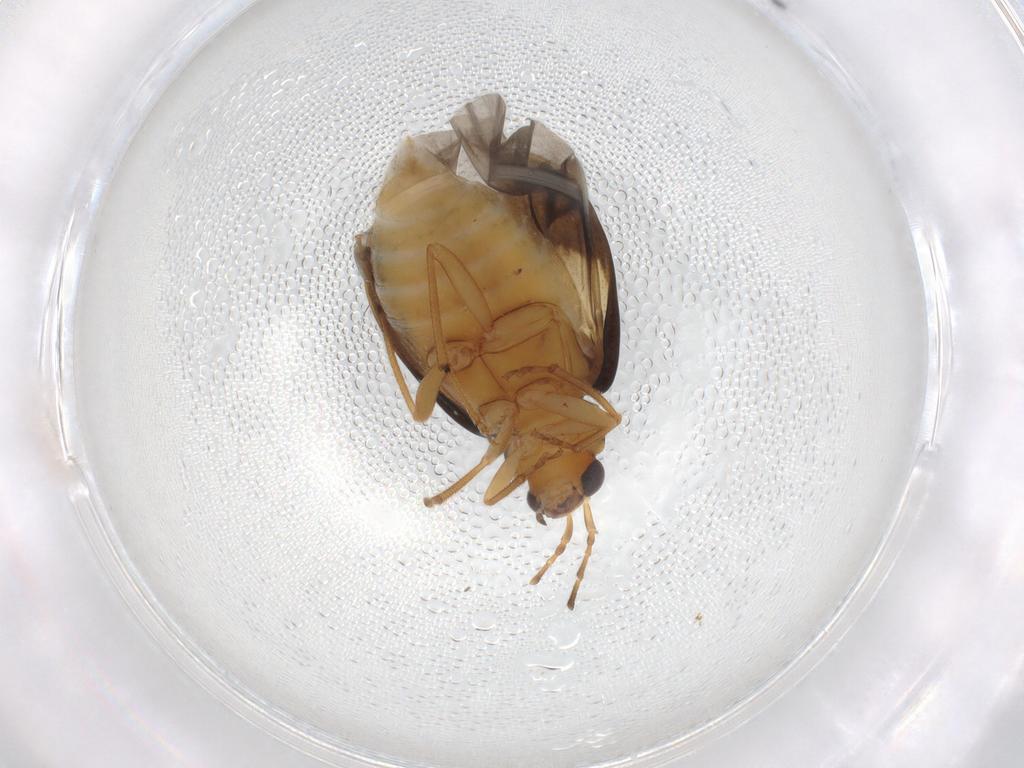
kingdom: Animalia
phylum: Arthropoda
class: Insecta
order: Coleoptera
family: Chrysomelidae
